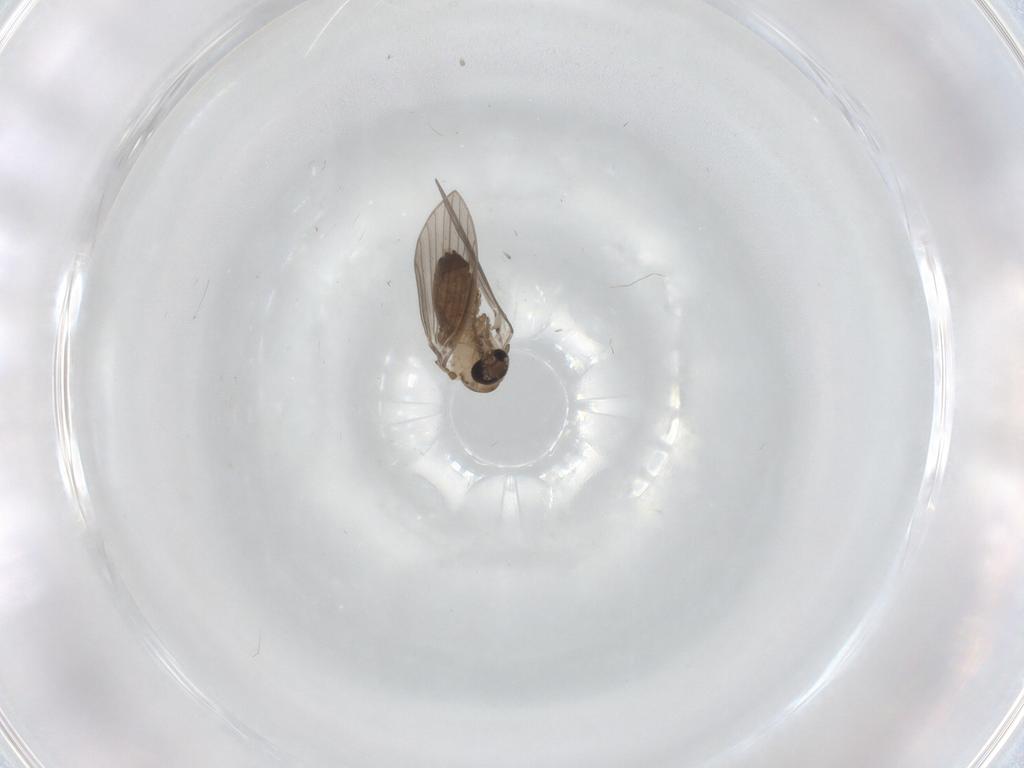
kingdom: Animalia
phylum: Arthropoda
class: Insecta
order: Diptera
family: Psychodidae
